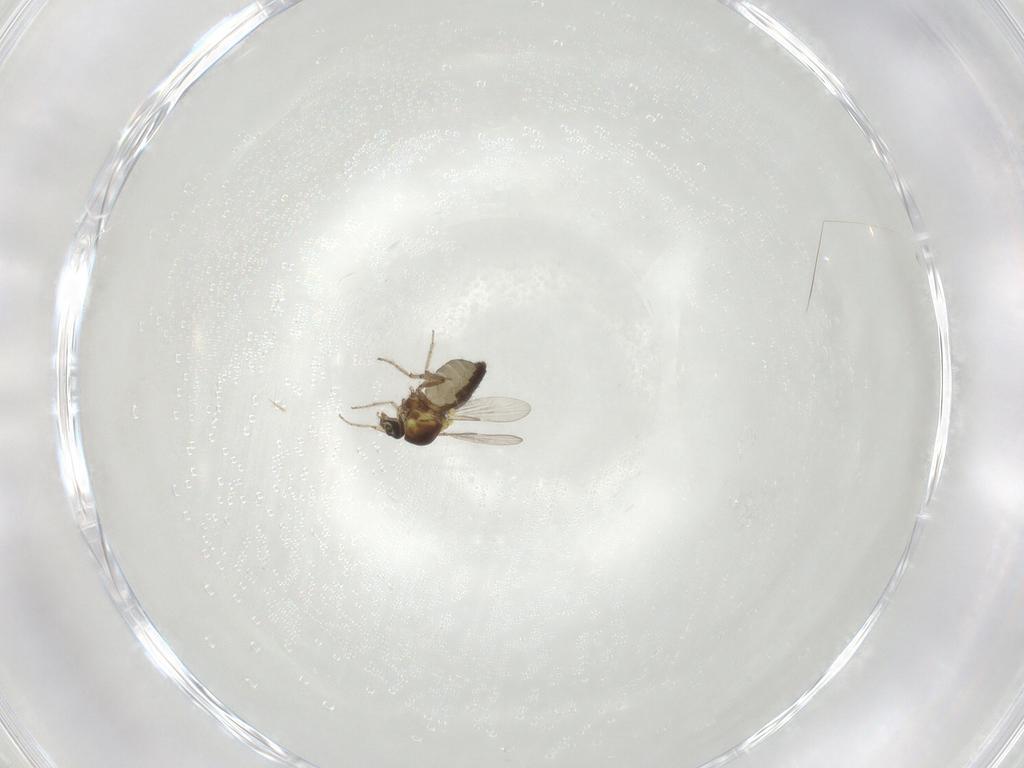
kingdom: Animalia
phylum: Arthropoda
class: Insecta
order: Diptera
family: Ceratopogonidae
